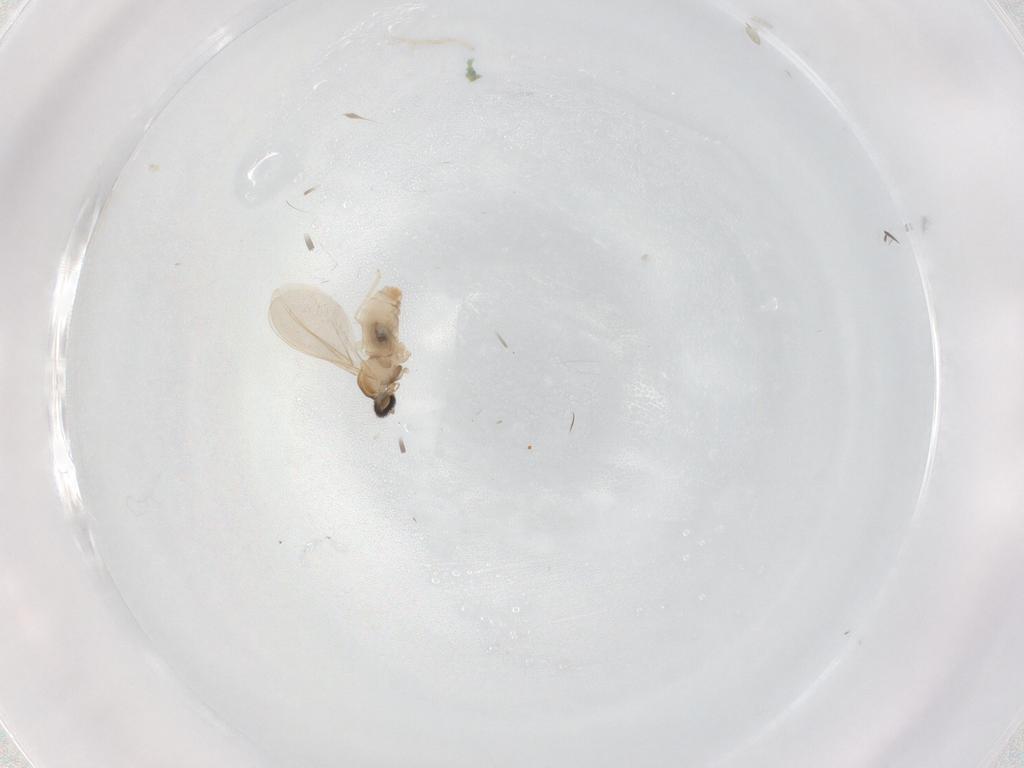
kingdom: Animalia
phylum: Arthropoda
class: Insecta
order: Diptera
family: Cecidomyiidae
